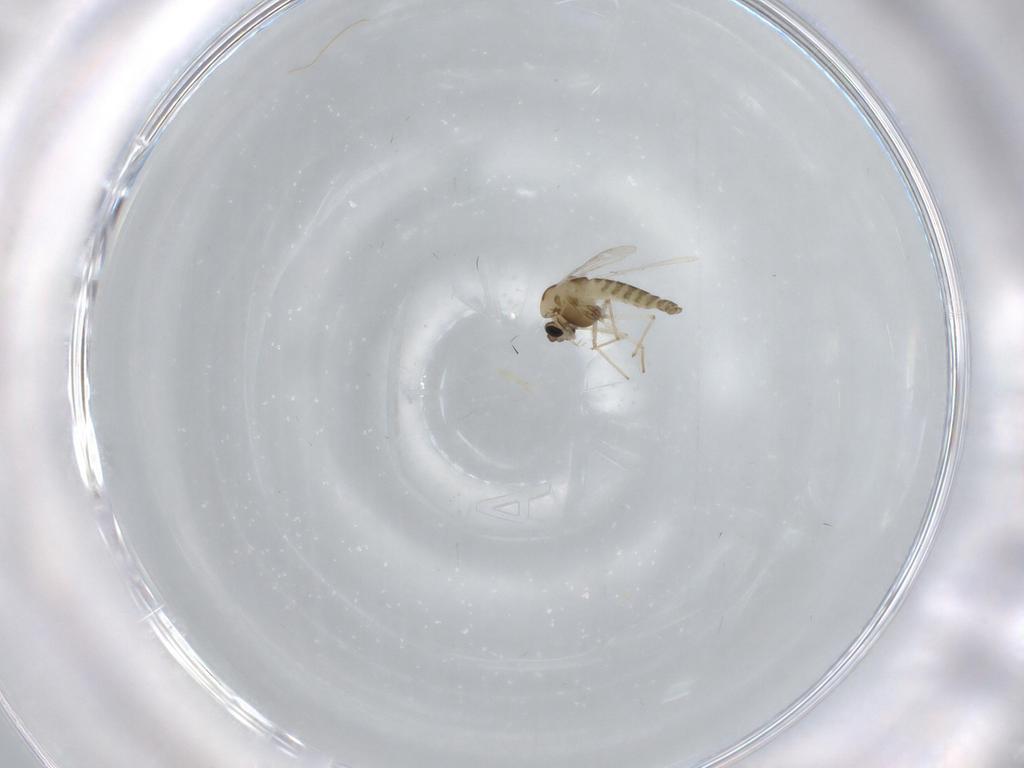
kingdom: Animalia
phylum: Arthropoda
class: Insecta
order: Diptera
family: Chironomidae
